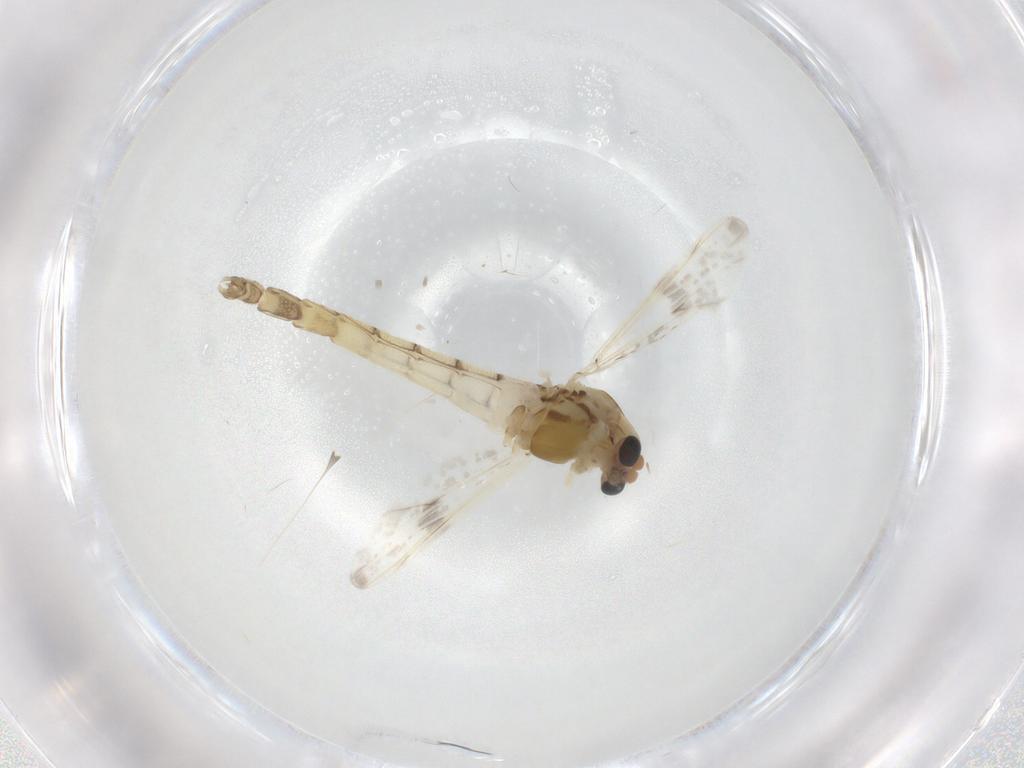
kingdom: Animalia
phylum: Arthropoda
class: Insecta
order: Diptera
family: Chironomidae
